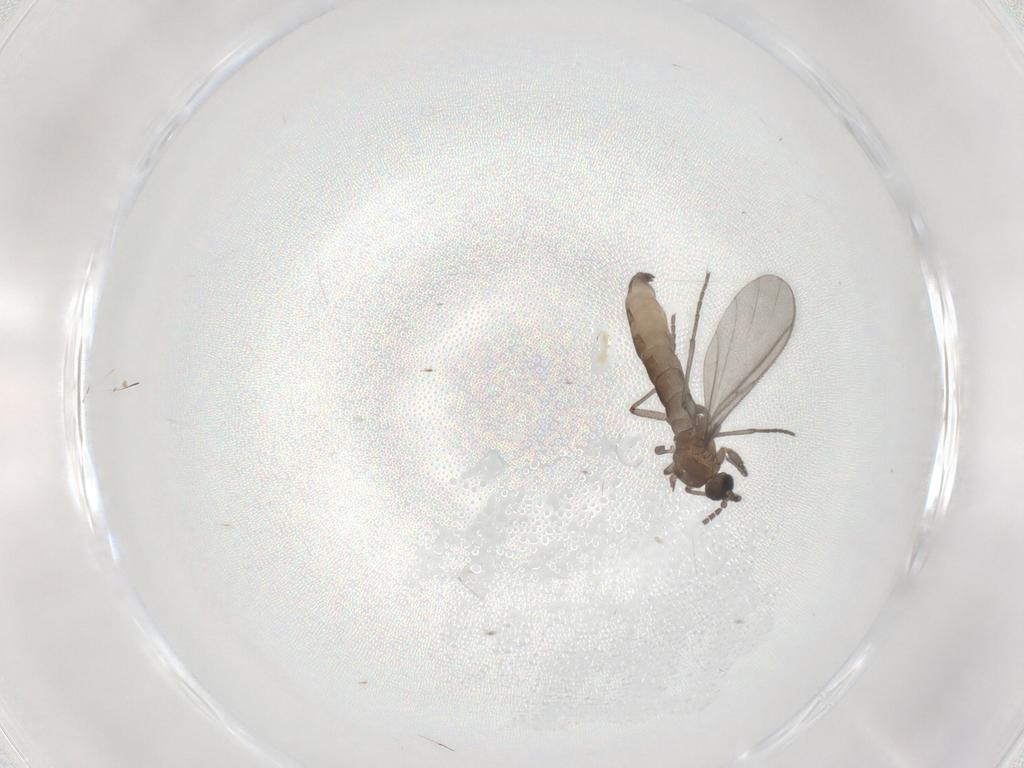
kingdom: Animalia
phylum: Arthropoda
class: Insecta
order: Diptera
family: Sciaridae
